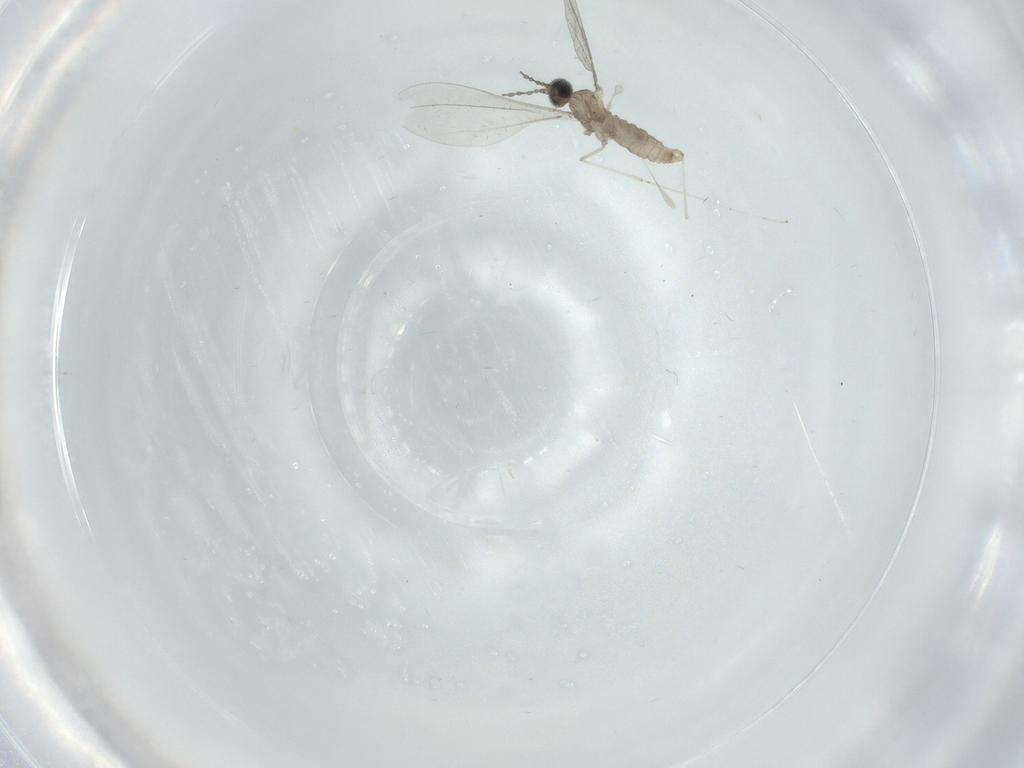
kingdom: Animalia
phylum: Arthropoda
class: Insecta
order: Diptera
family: Cecidomyiidae
